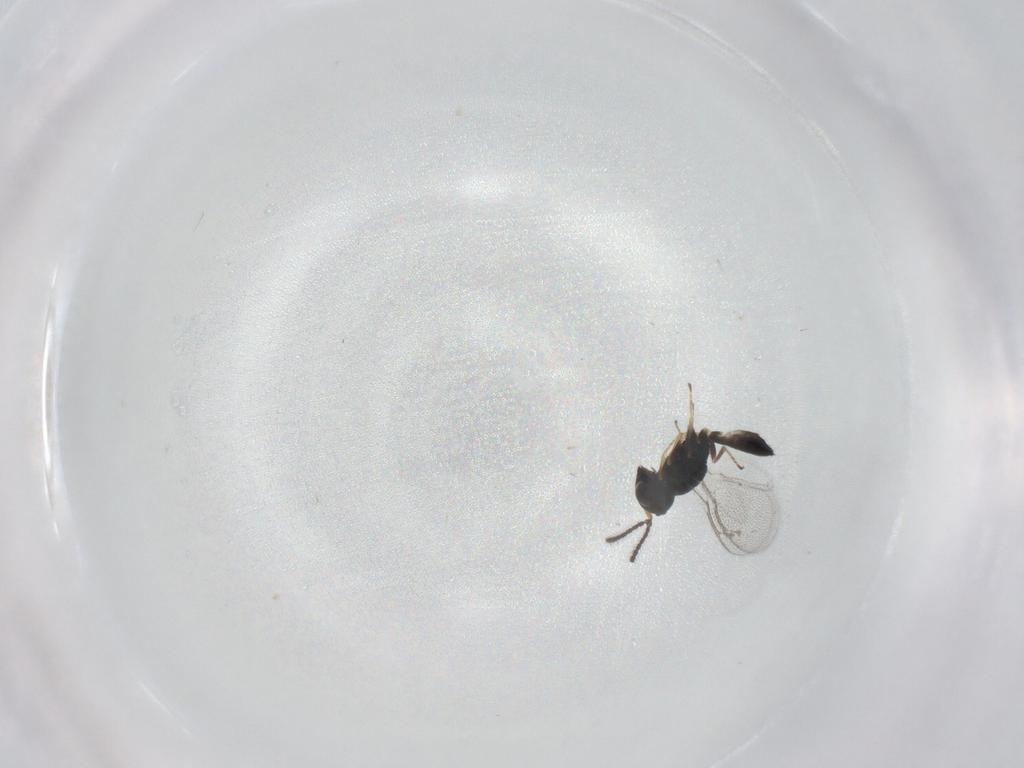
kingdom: Animalia
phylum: Arthropoda
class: Insecta
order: Hymenoptera
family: Pteromalidae
